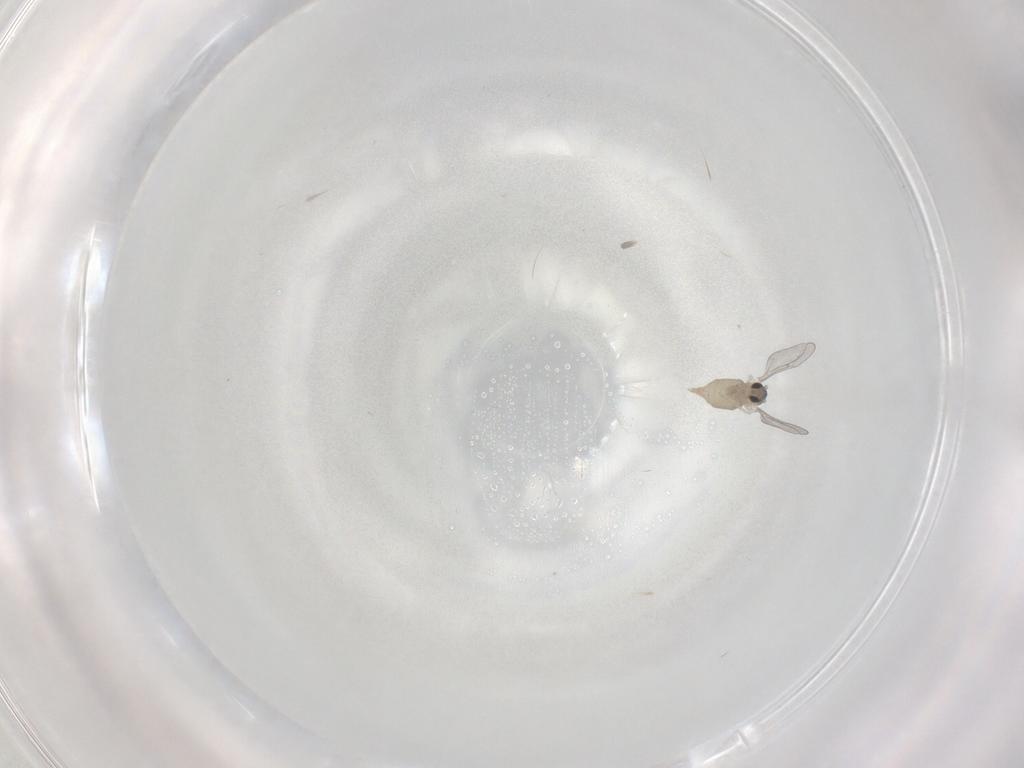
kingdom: Animalia
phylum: Arthropoda
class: Insecta
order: Diptera
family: Cecidomyiidae
